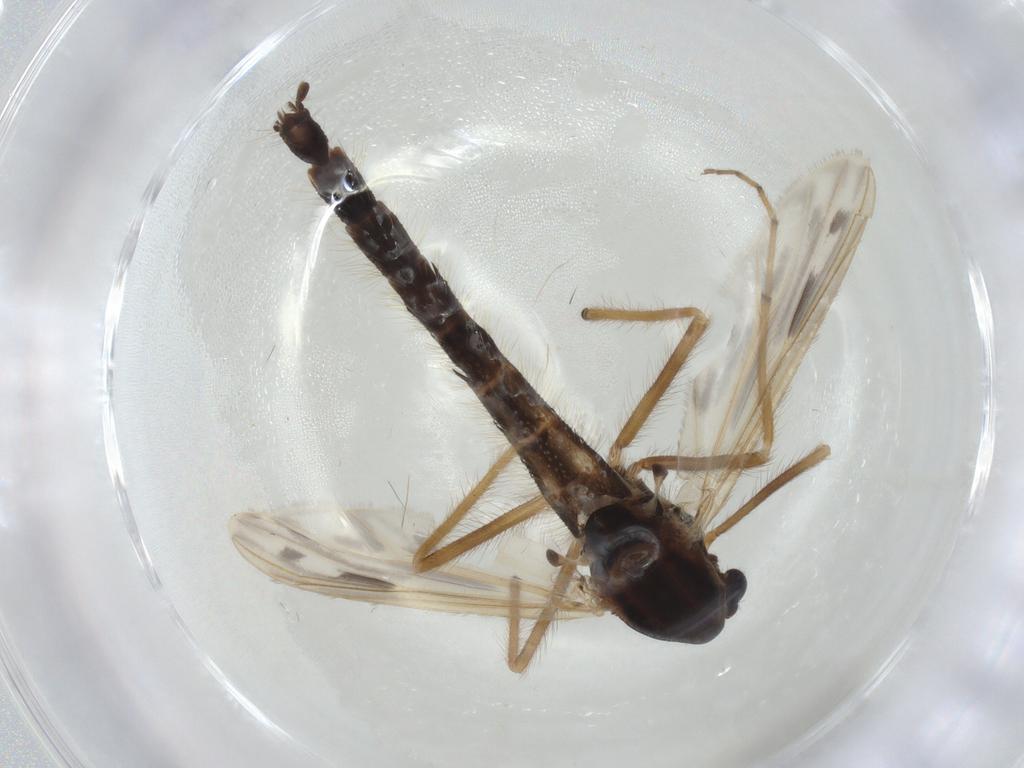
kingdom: Animalia
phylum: Arthropoda
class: Insecta
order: Diptera
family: Chironomidae
